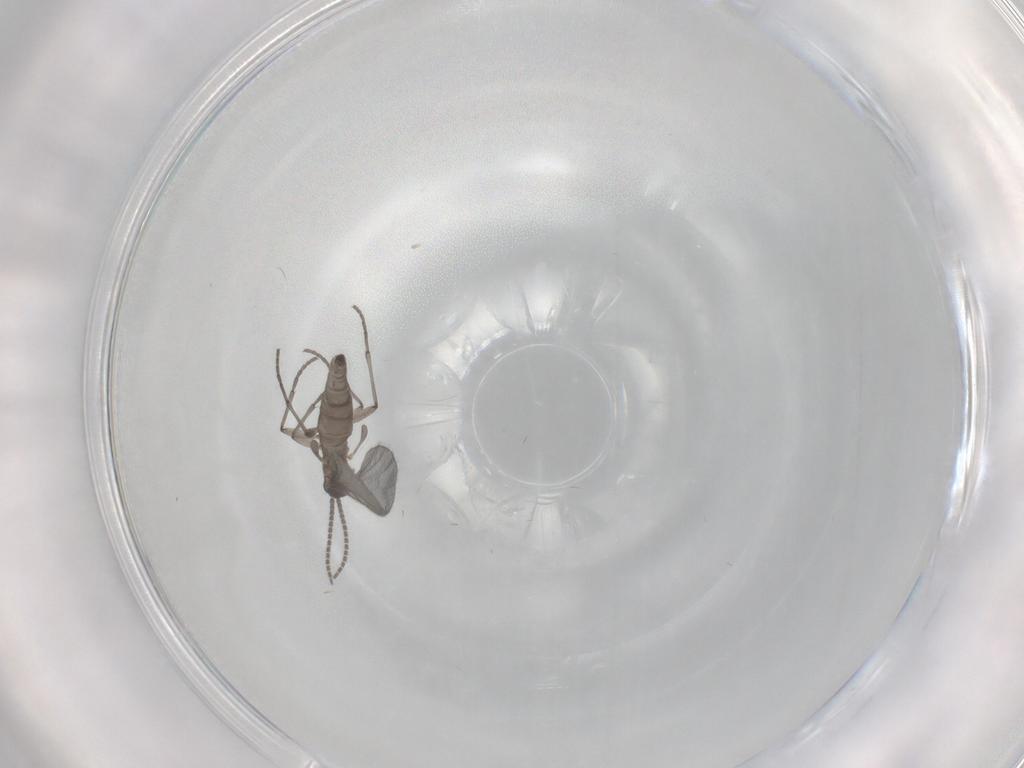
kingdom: Animalia
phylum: Arthropoda
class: Insecta
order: Diptera
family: Sciaridae
